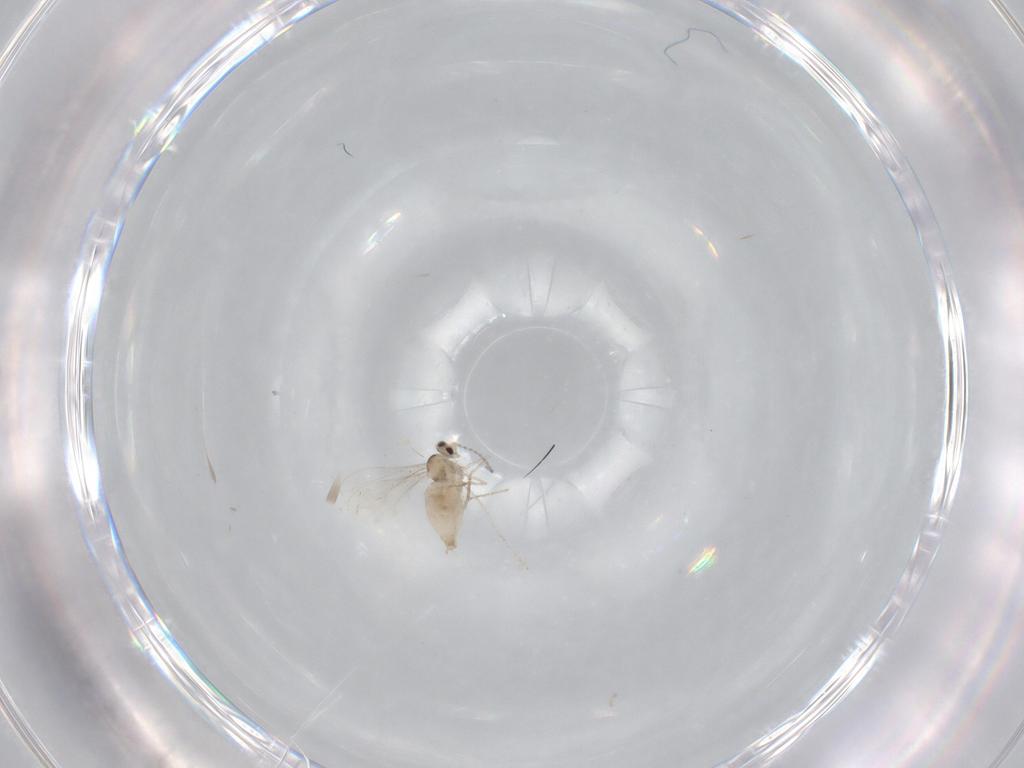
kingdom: Animalia
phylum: Arthropoda
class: Insecta
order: Diptera
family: Cecidomyiidae
